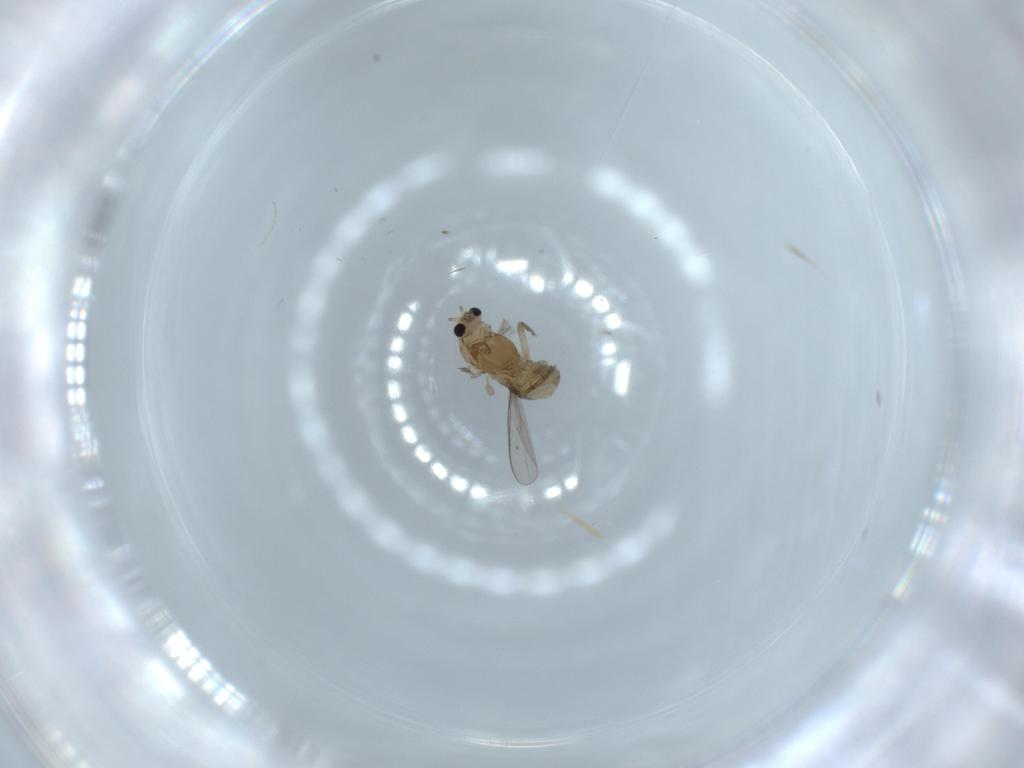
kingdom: Animalia
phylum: Arthropoda
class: Insecta
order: Diptera
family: Chironomidae
